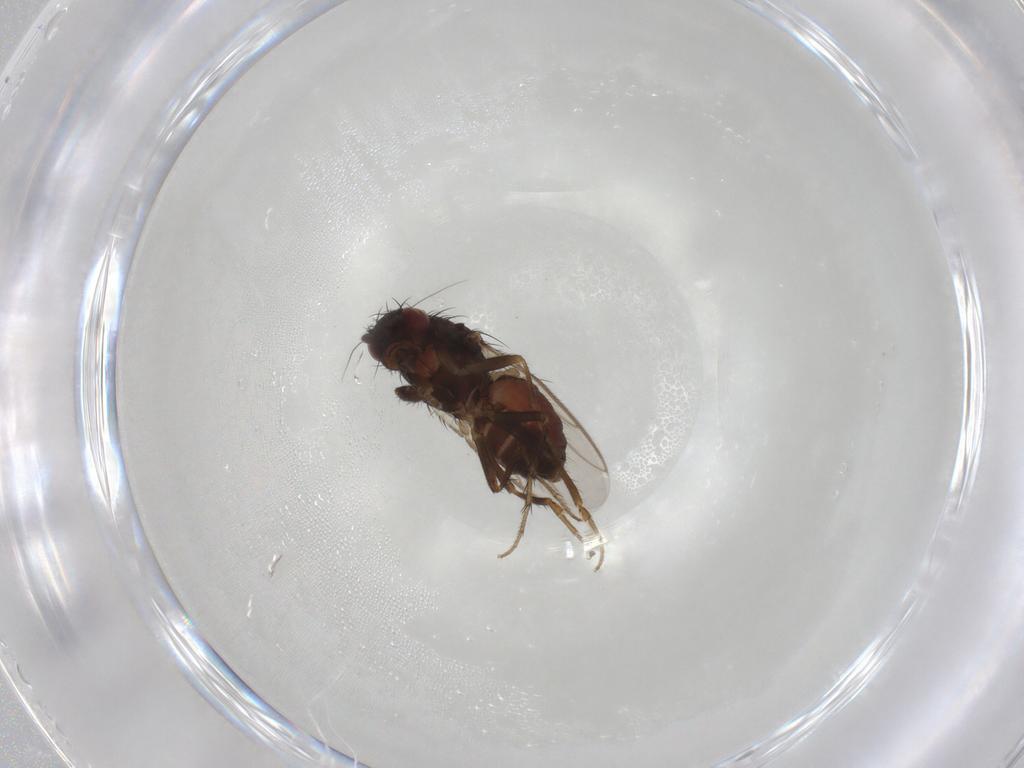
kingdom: Animalia
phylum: Arthropoda
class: Insecta
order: Diptera
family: Sphaeroceridae
